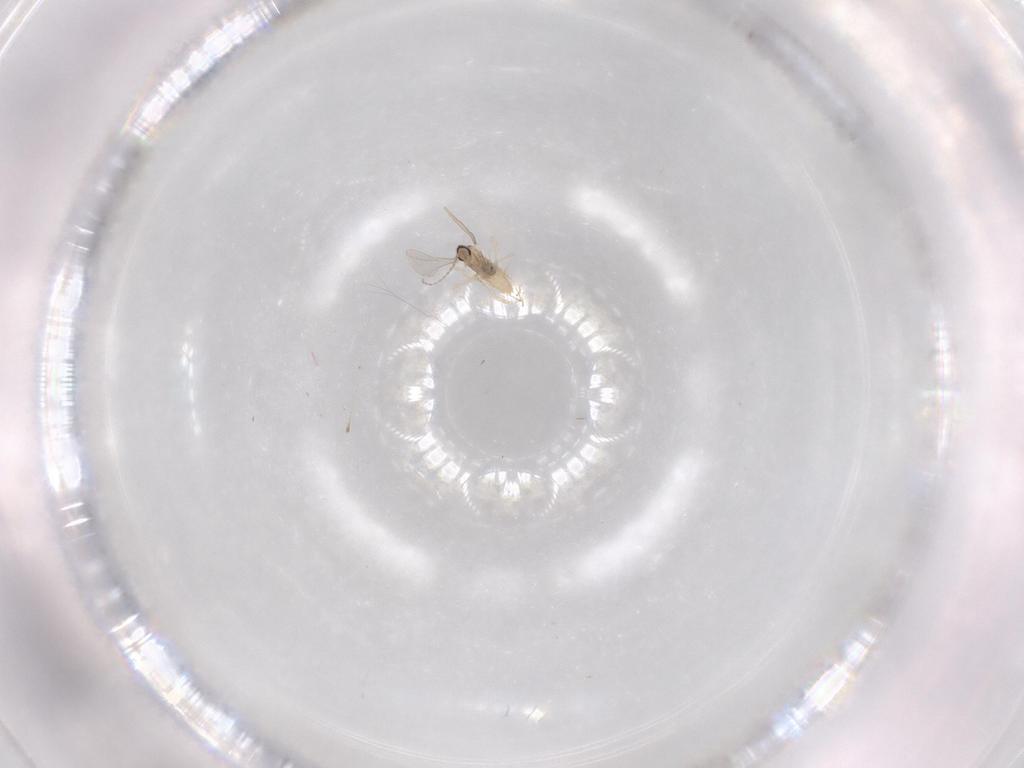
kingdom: Animalia
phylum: Arthropoda
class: Insecta
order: Diptera
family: Cecidomyiidae
